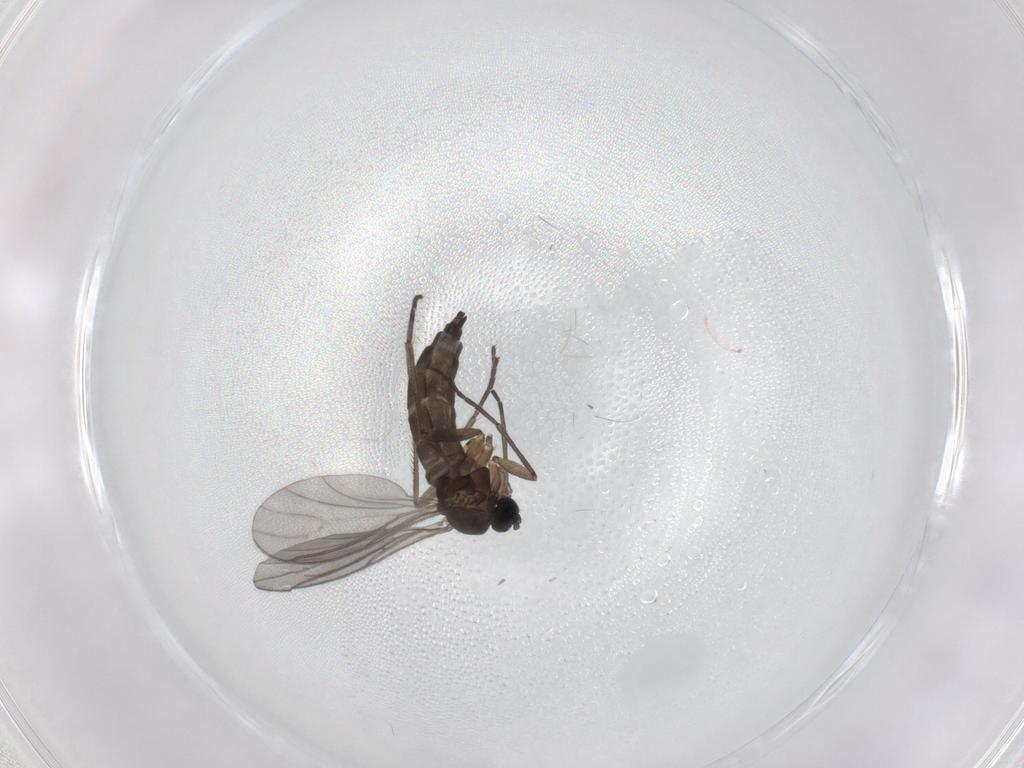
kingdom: Animalia
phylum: Arthropoda
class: Insecta
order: Diptera
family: Sciaridae
